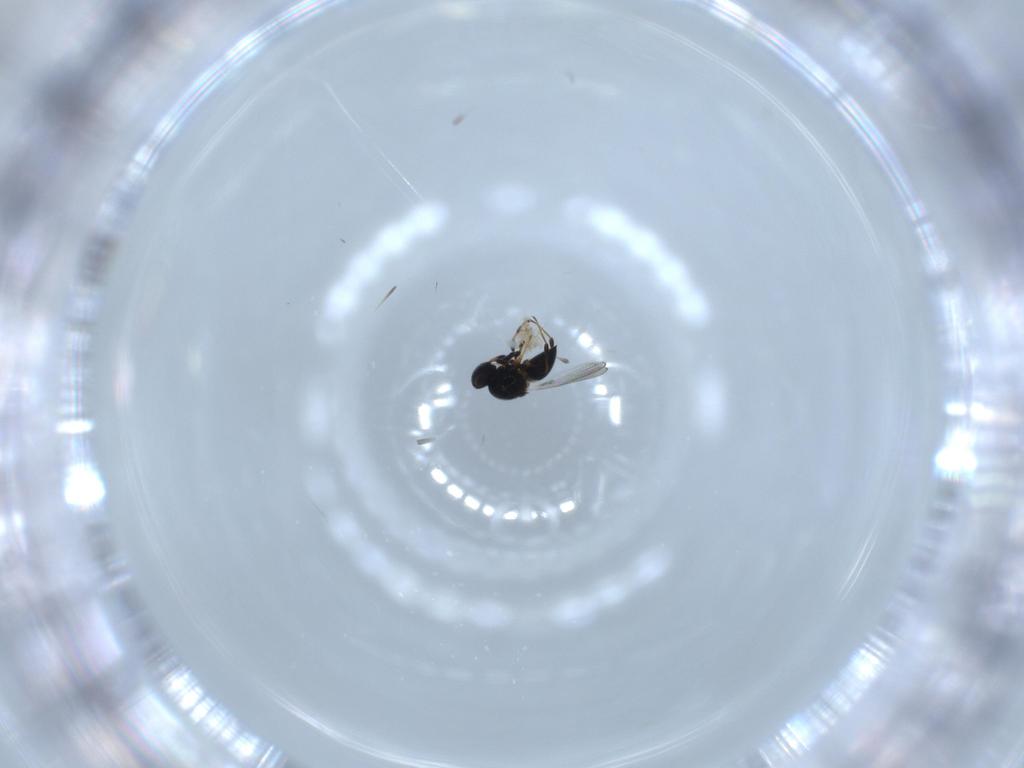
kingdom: Animalia
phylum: Arthropoda
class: Insecta
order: Hymenoptera
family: Platygastridae
